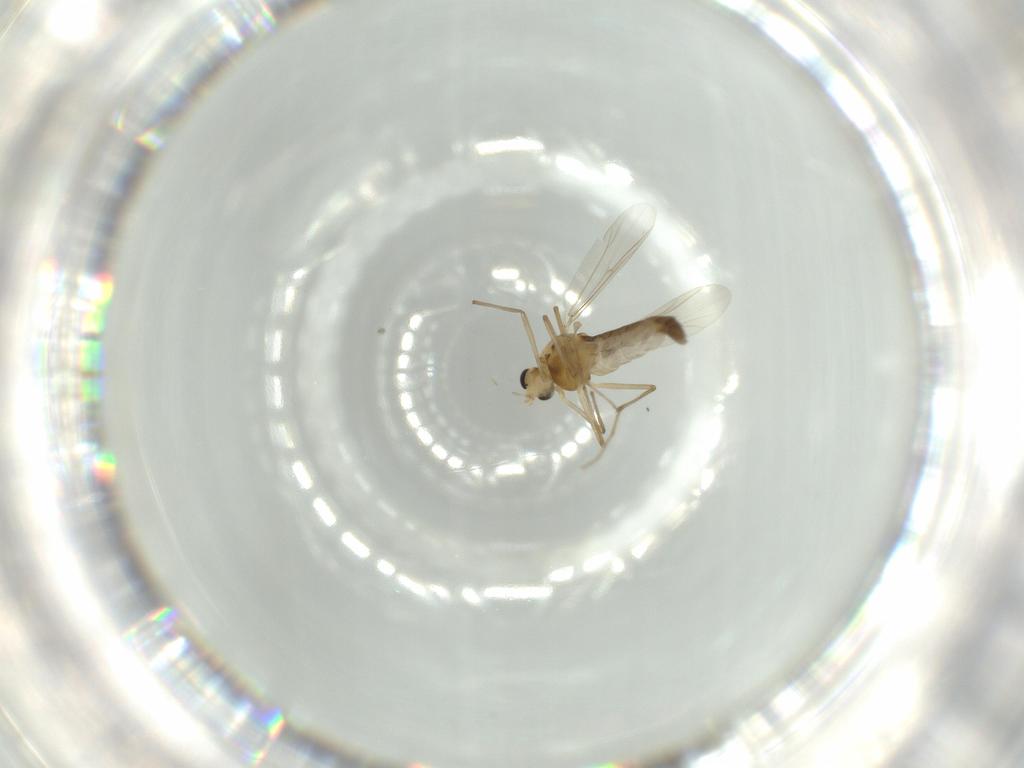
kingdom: Animalia
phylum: Arthropoda
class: Insecta
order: Diptera
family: Chironomidae
